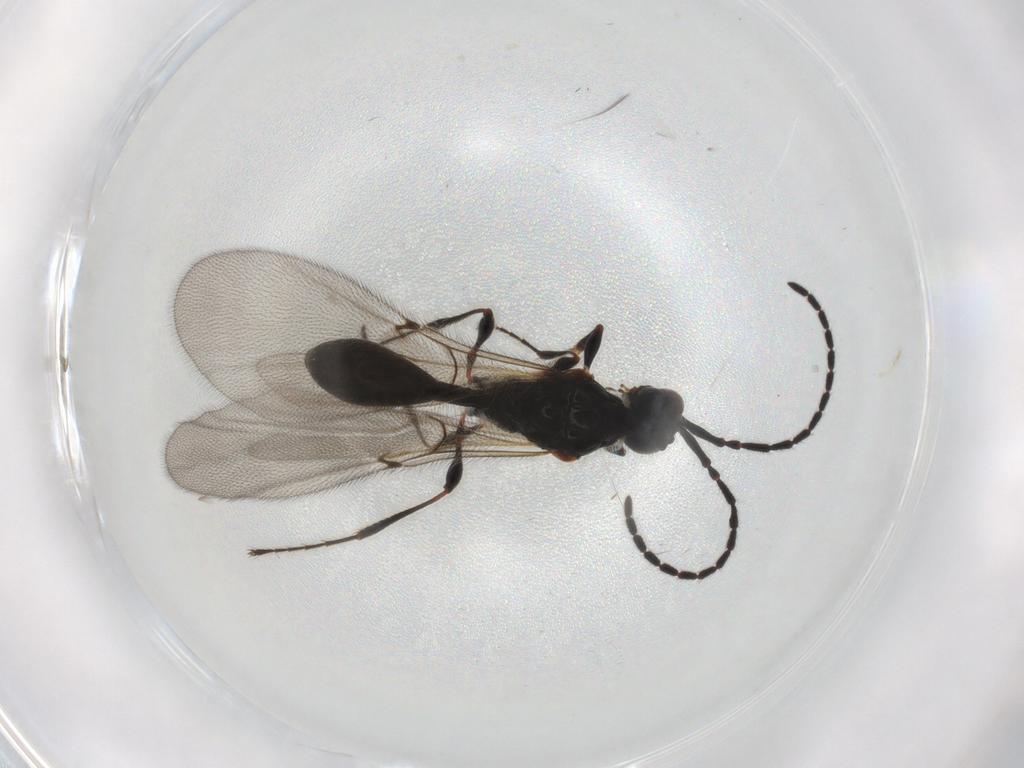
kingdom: Animalia
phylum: Arthropoda
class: Insecta
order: Hymenoptera
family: Diapriidae
